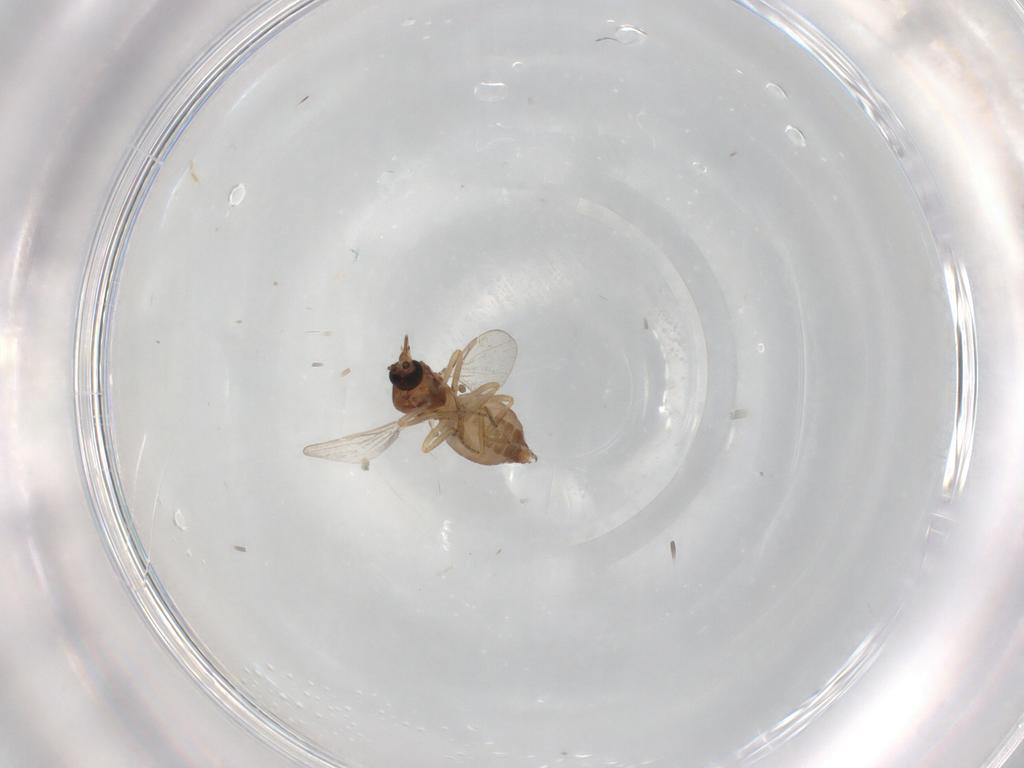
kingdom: Animalia
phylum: Arthropoda
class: Insecta
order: Diptera
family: Ceratopogonidae
